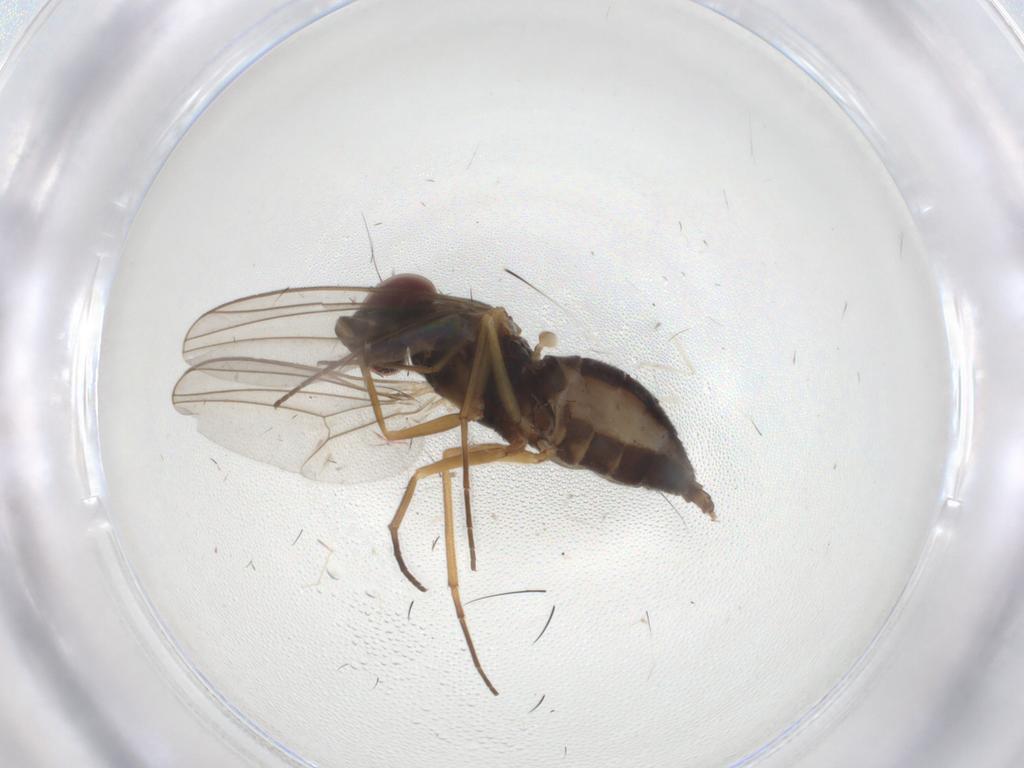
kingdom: Animalia
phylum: Arthropoda
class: Insecta
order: Diptera
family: Dolichopodidae
